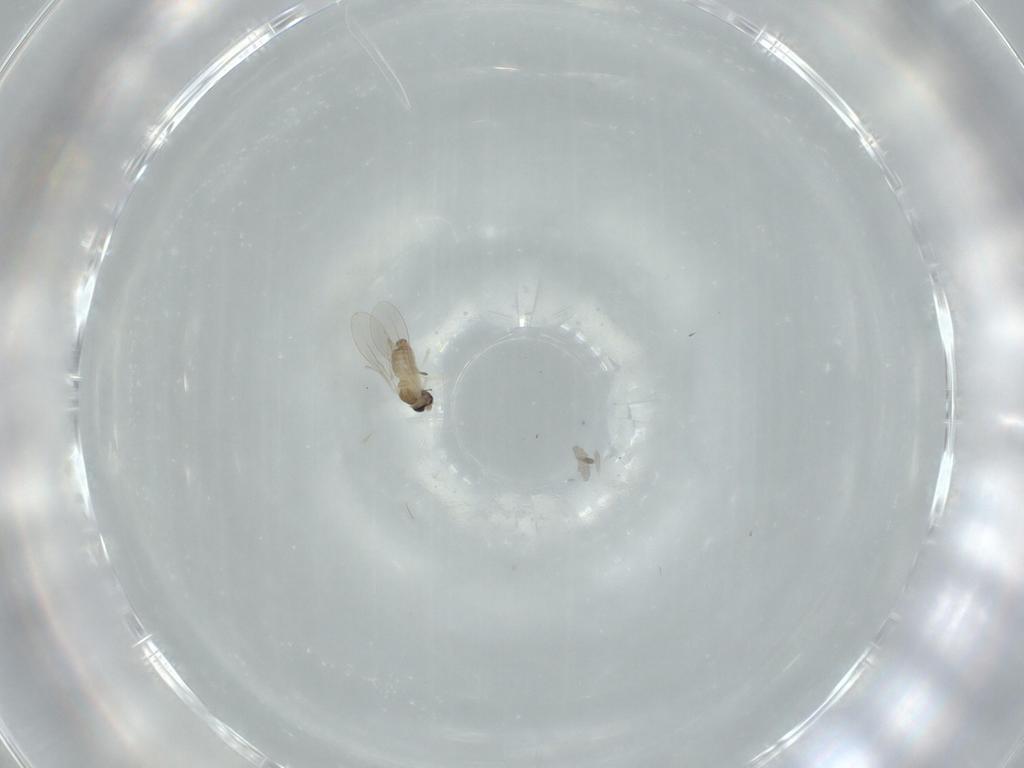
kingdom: Animalia
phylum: Arthropoda
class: Insecta
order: Diptera
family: Cecidomyiidae
